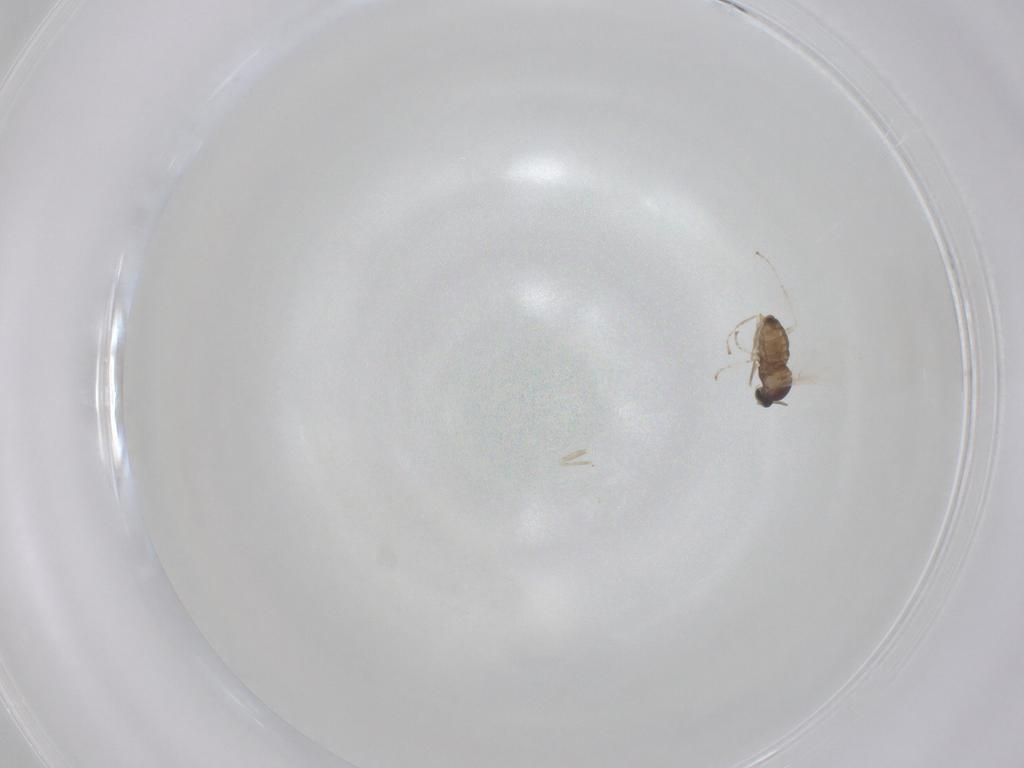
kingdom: Animalia
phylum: Arthropoda
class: Insecta
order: Diptera
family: Cecidomyiidae
